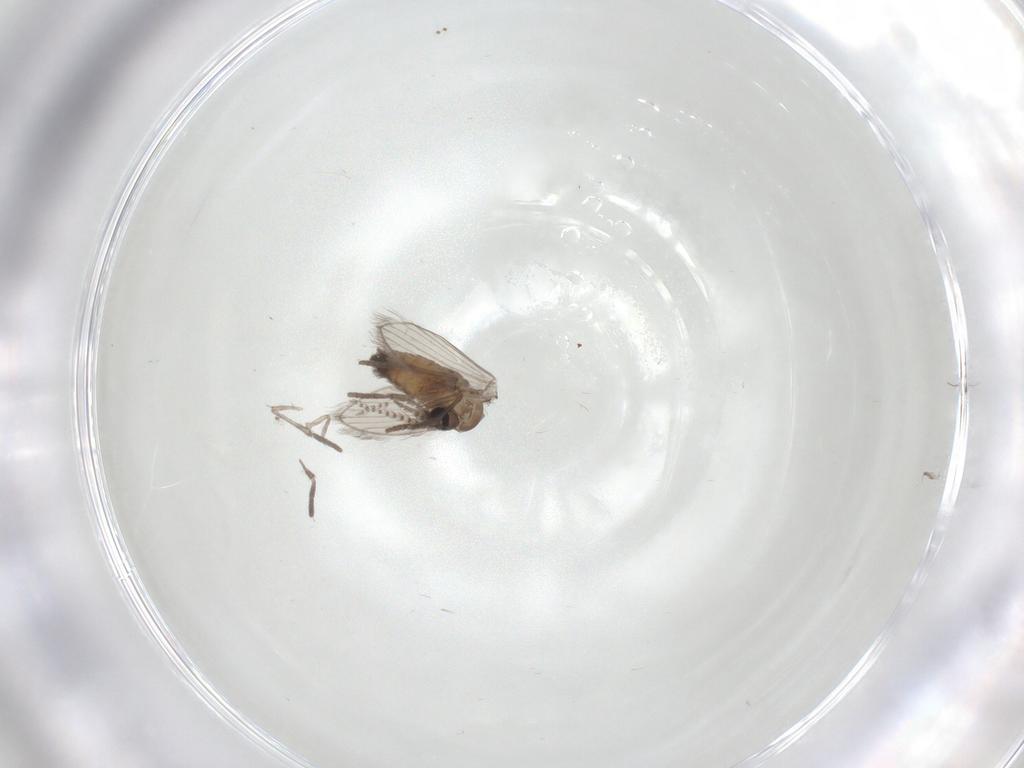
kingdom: Animalia
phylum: Arthropoda
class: Insecta
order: Diptera
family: Psychodidae
